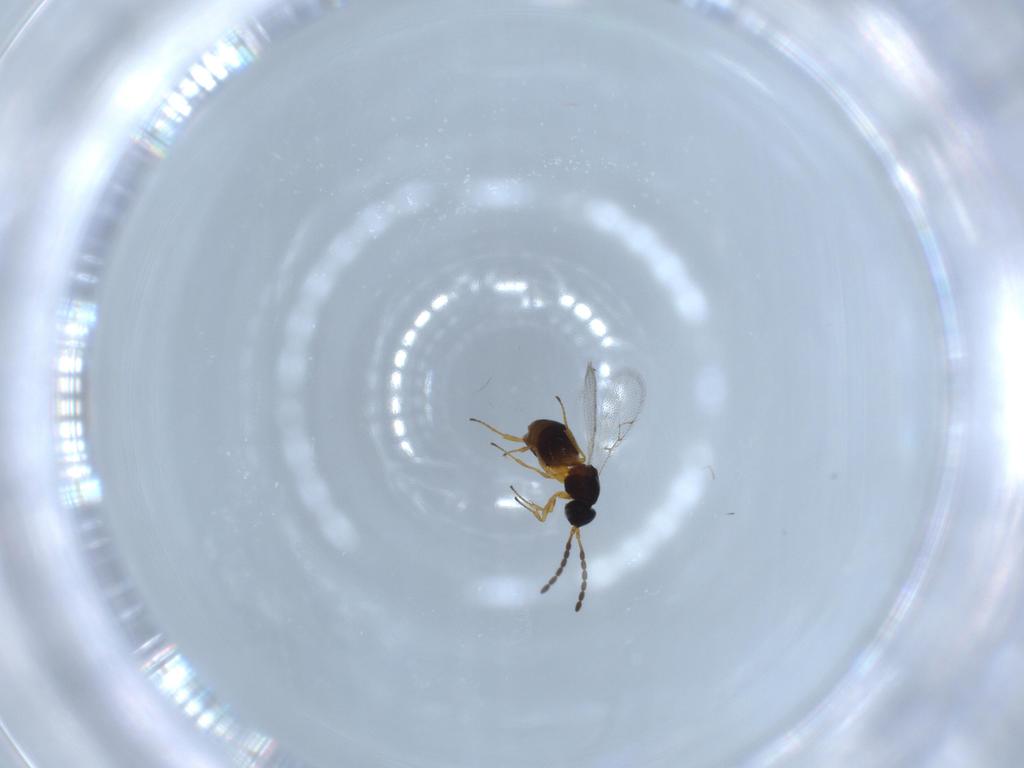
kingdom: Animalia
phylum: Arthropoda
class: Insecta
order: Hymenoptera
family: Figitidae
